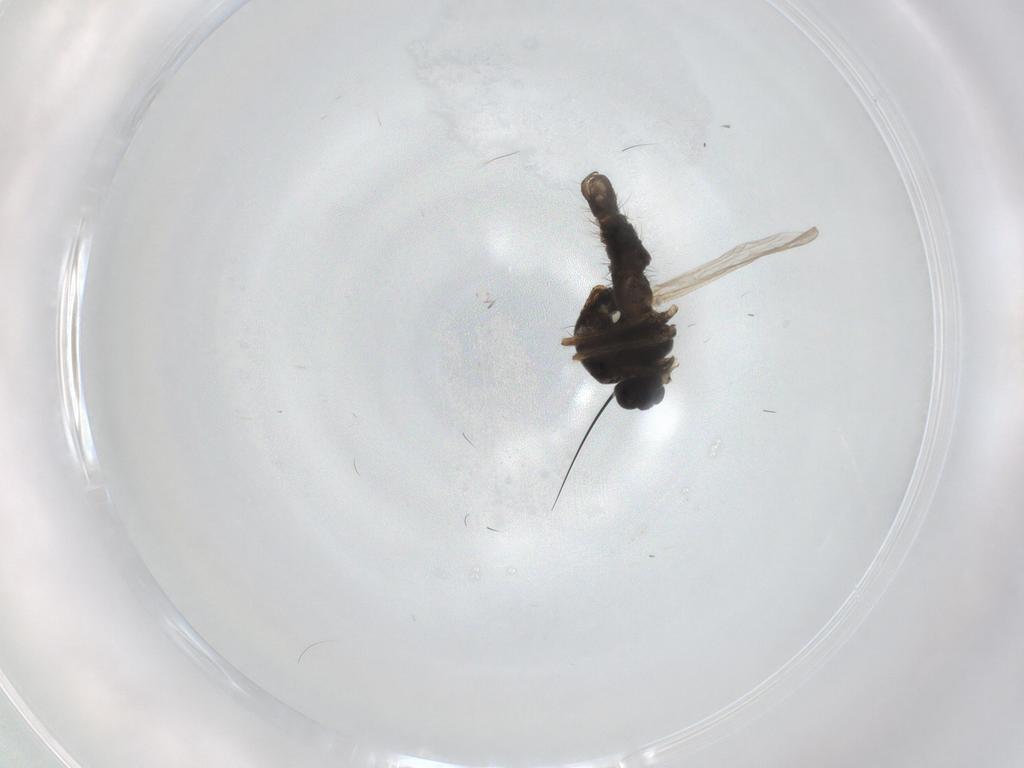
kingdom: Animalia
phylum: Arthropoda
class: Insecta
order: Diptera
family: Ceratopogonidae
